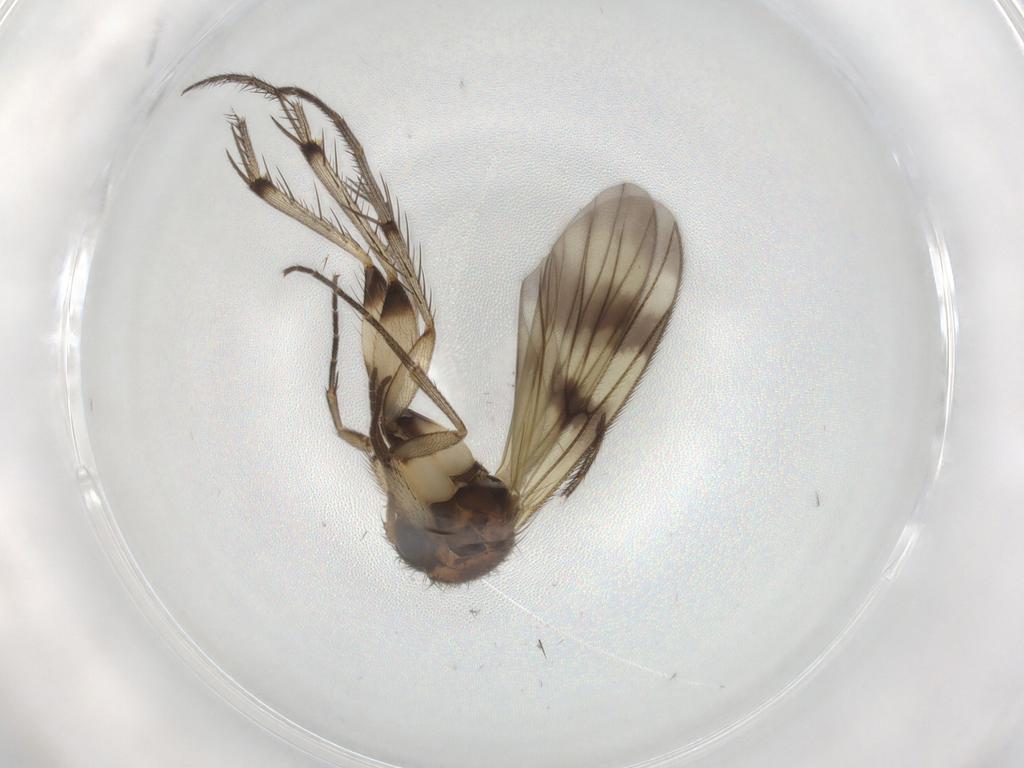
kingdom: Animalia
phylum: Arthropoda
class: Insecta
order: Diptera
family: Mycetophilidae
